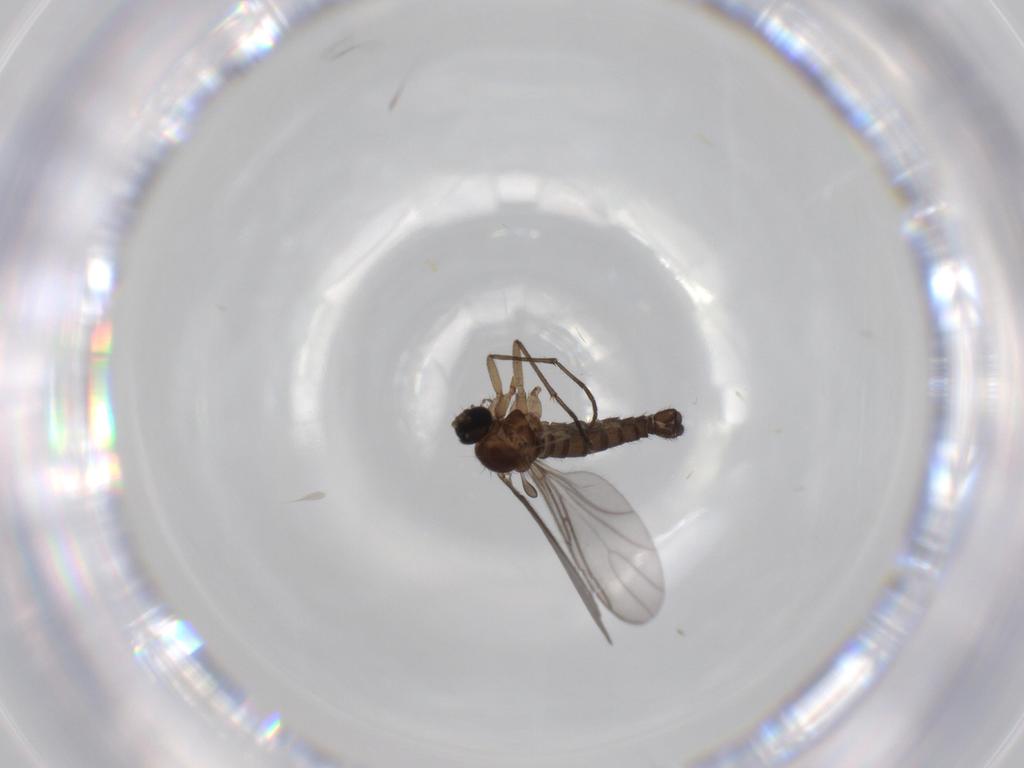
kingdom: Animalia
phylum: Arthropoda
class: Insecta
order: Diptera
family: Sciaridae
